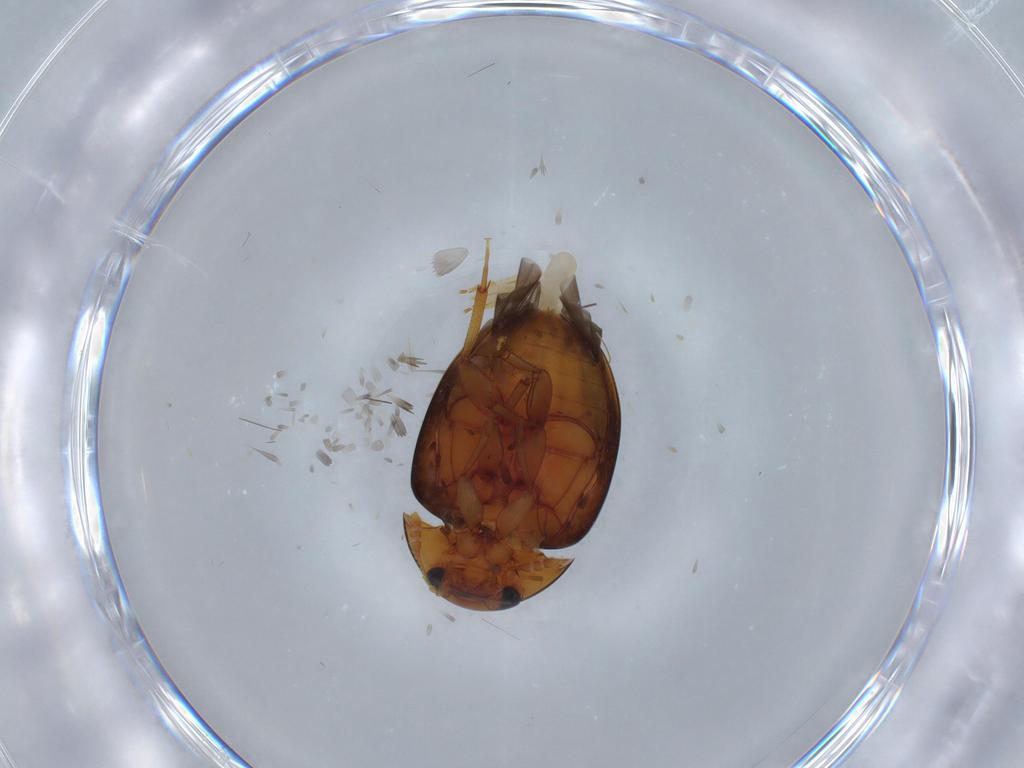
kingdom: Animalia
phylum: Arthropoda
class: Insecta
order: Coleoptera
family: Phalacridae
